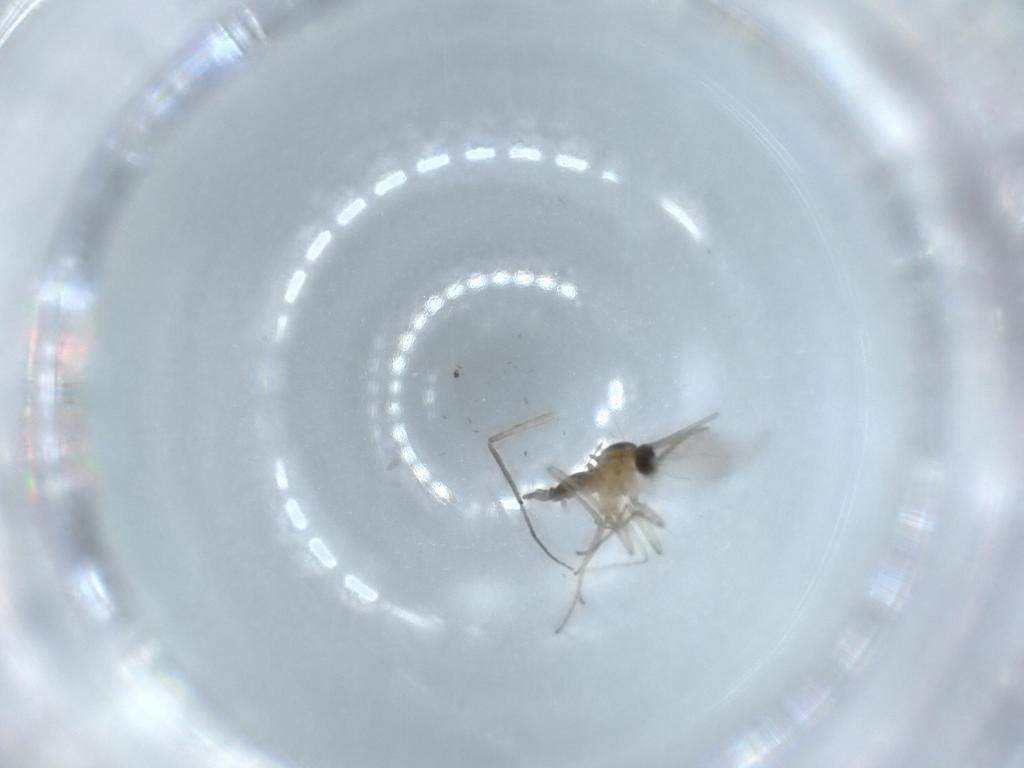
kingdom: Animalia
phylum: Arthropoda
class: Insecta
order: Diptera
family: Cecidomyiidae
